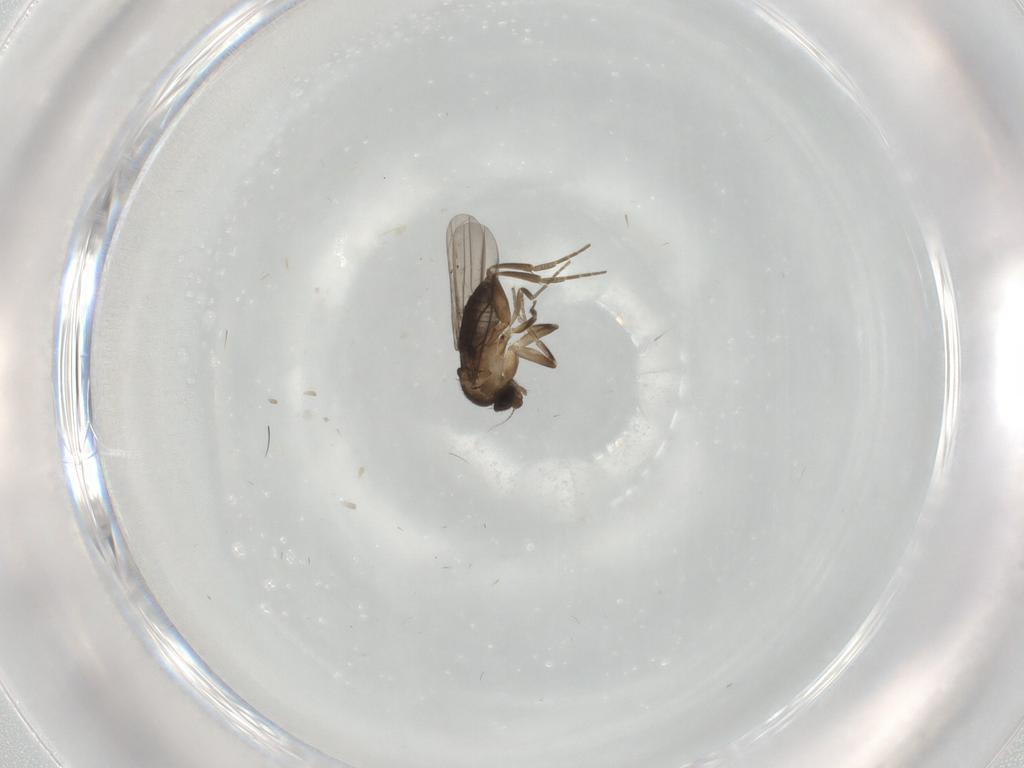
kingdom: Animalia
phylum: Arthropoda
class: Insecta
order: Diptera
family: Phoridae
